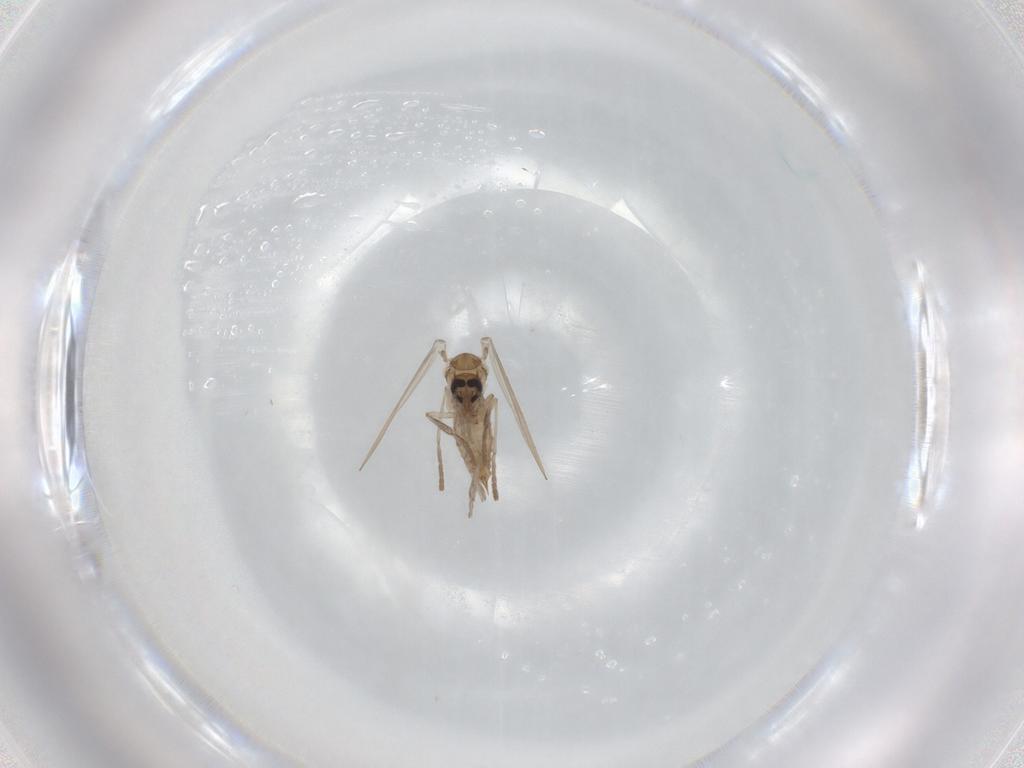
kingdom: Animalia
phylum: Arthropoda
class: Insecta
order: Diptera
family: Psychodidae
